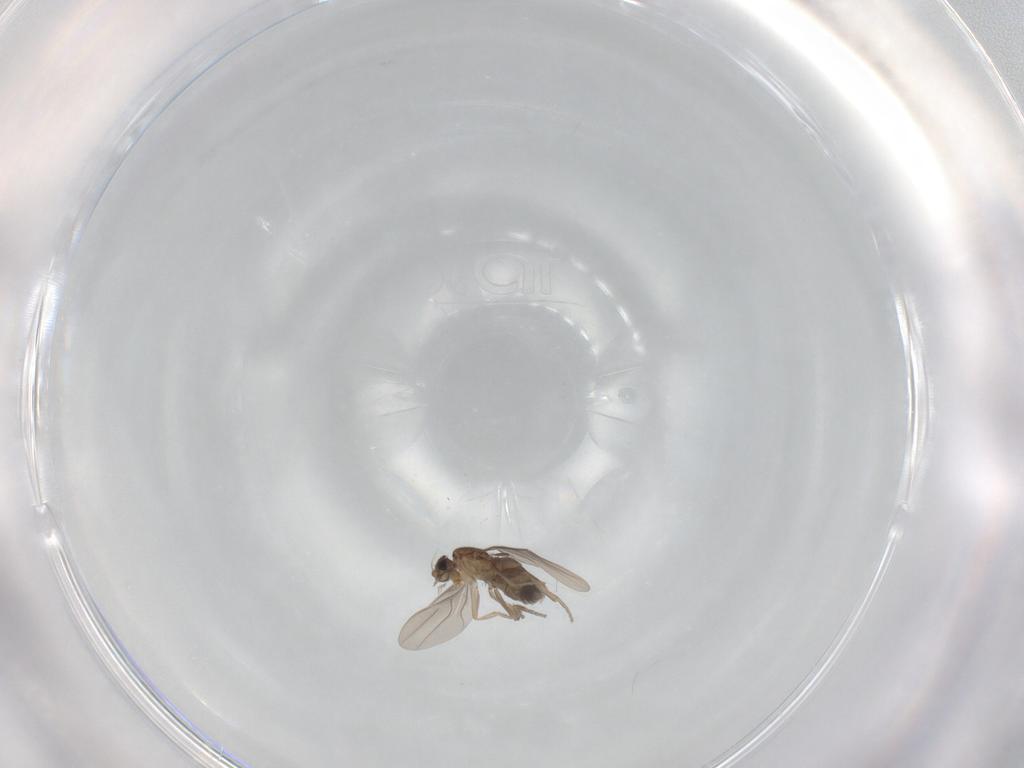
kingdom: Animalia
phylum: Arthropoda
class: Insecta
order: Diptera
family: Phoridae
